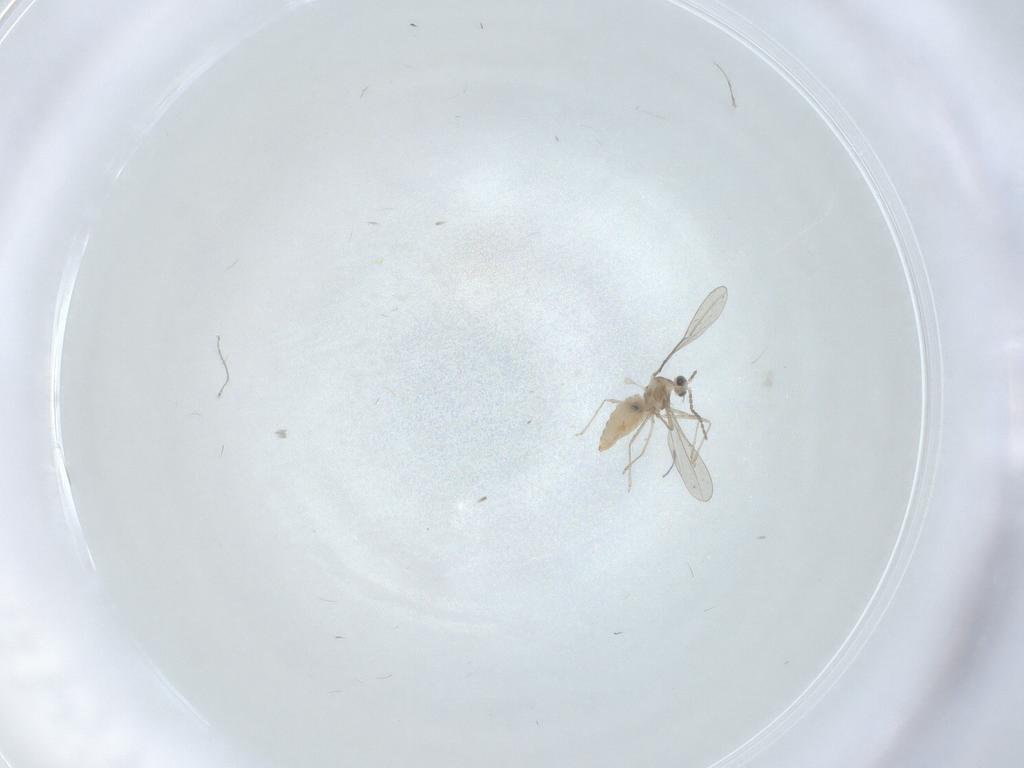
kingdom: Animalia
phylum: Arthropoda
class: Insecta
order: Diptera
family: Cecidomyiidae
